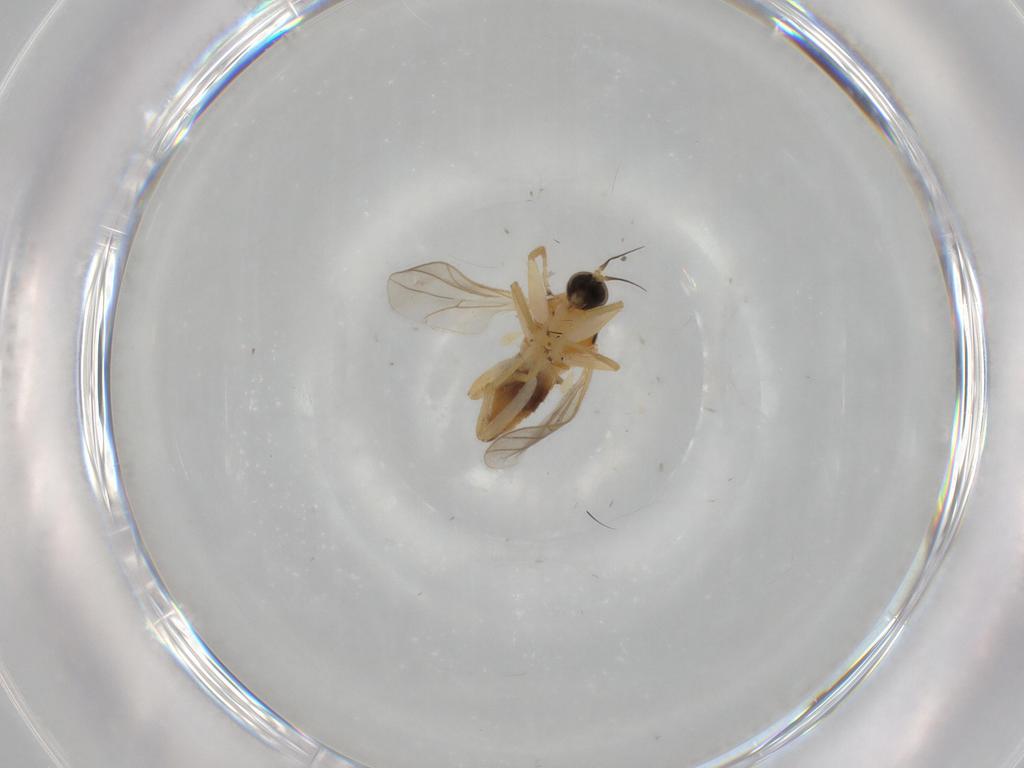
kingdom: Animalia
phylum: Arthropoda
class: Insecta
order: Diptera
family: Hybotidae
